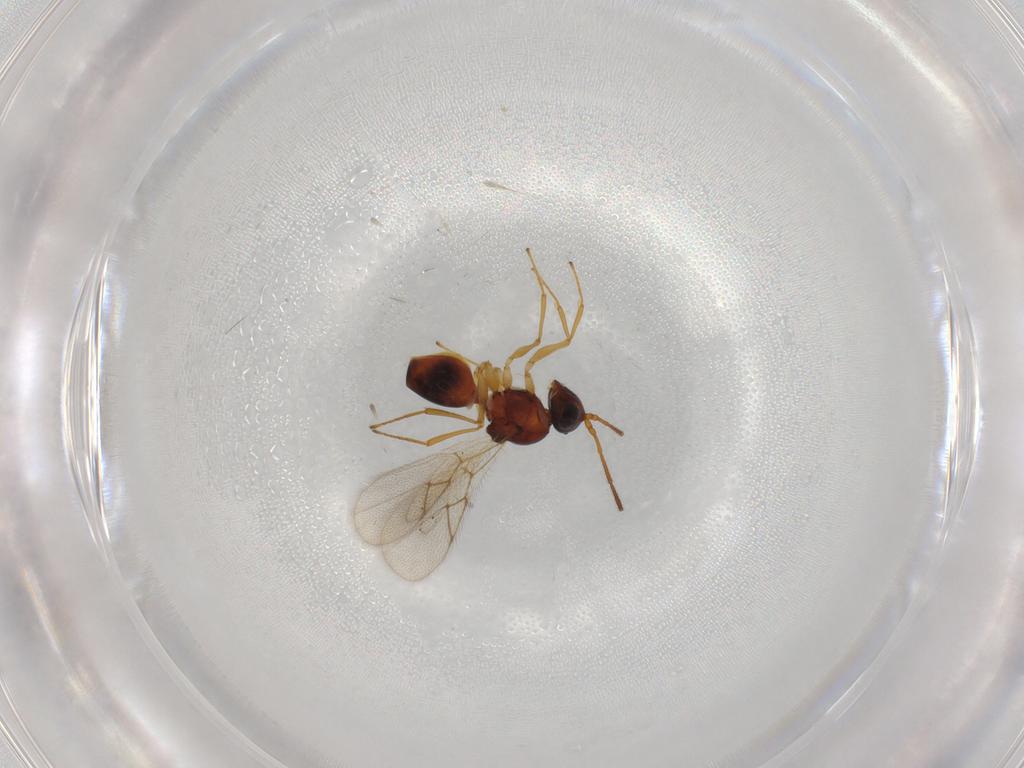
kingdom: Animalia
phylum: Arthropoda
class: Insecta
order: Hymenoptera
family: Figitidae
